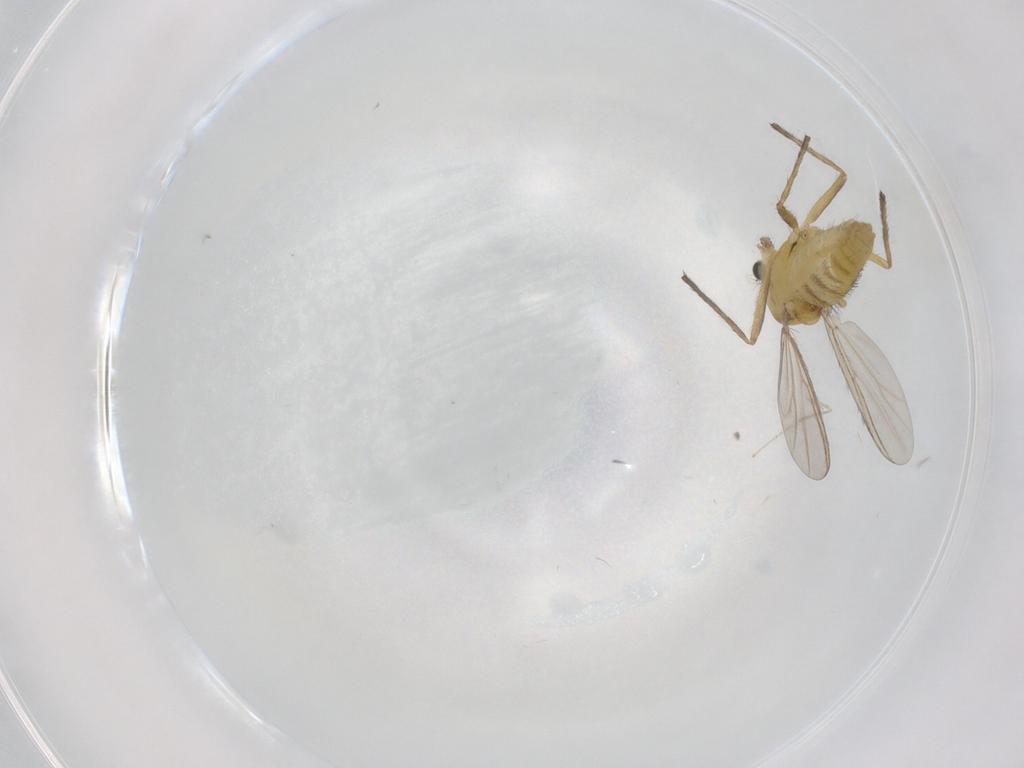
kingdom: Animalia
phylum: Arthropoda
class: Insecta
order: Diptera
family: Chironomidae
